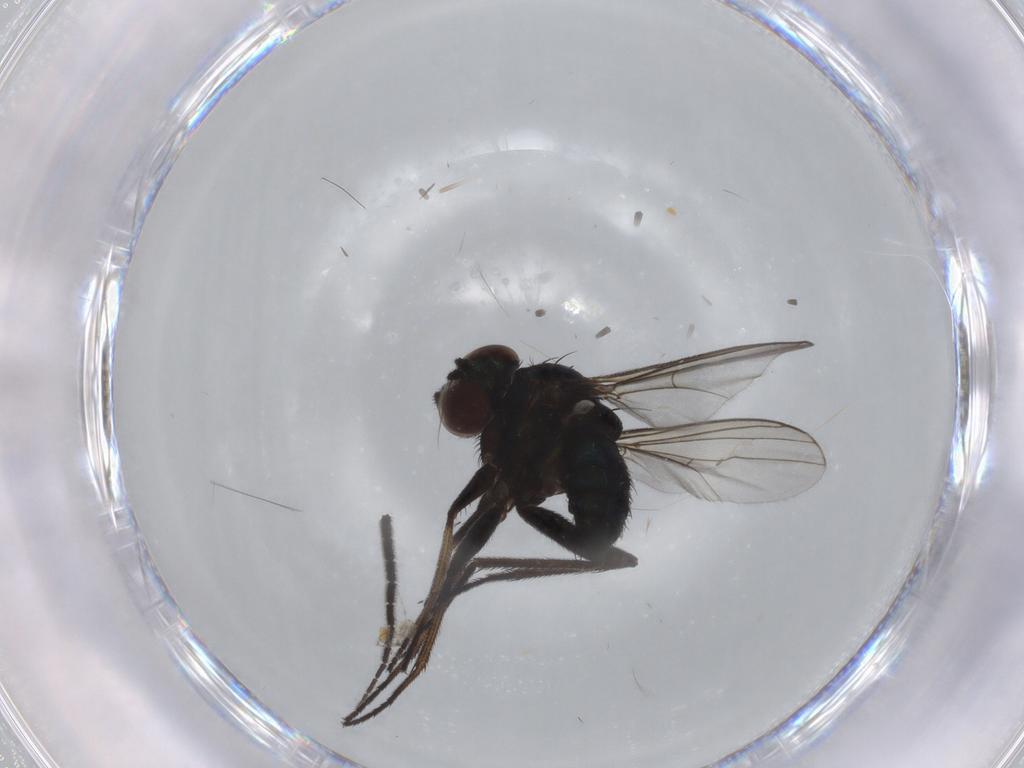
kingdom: Animalia
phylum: Arthropoda
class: Insecta
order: Diptera
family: Dolichopodidae
